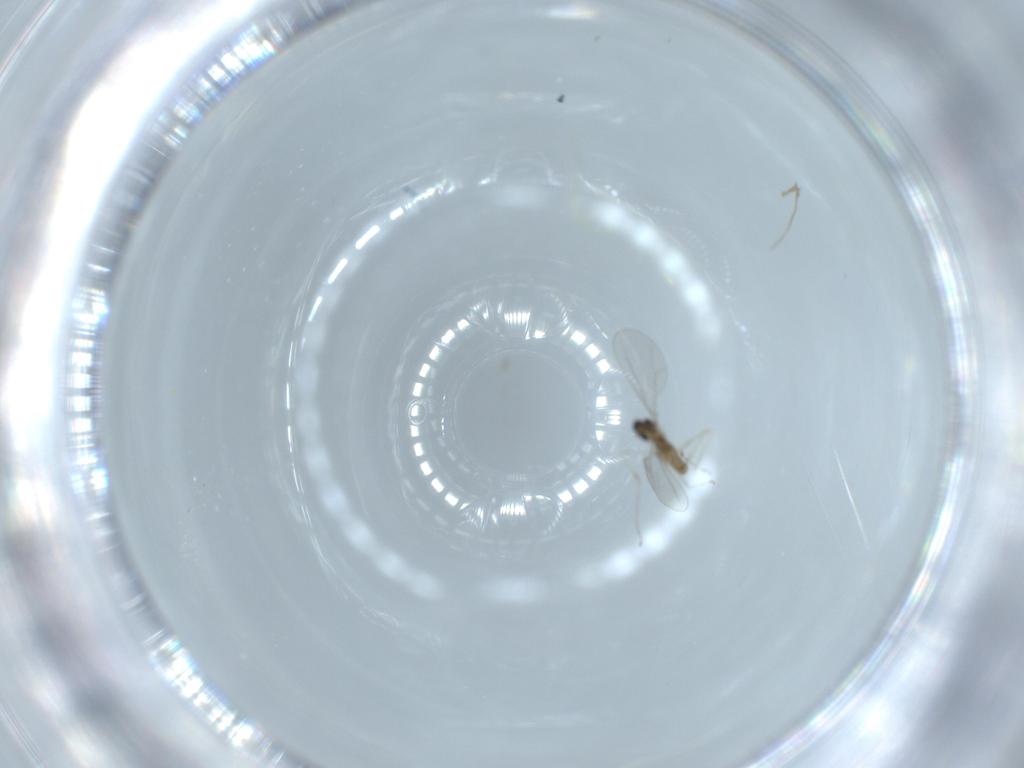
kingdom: Animalia
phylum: Arthropoda
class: Insecta
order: Diptera
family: Cecidomyiidae
